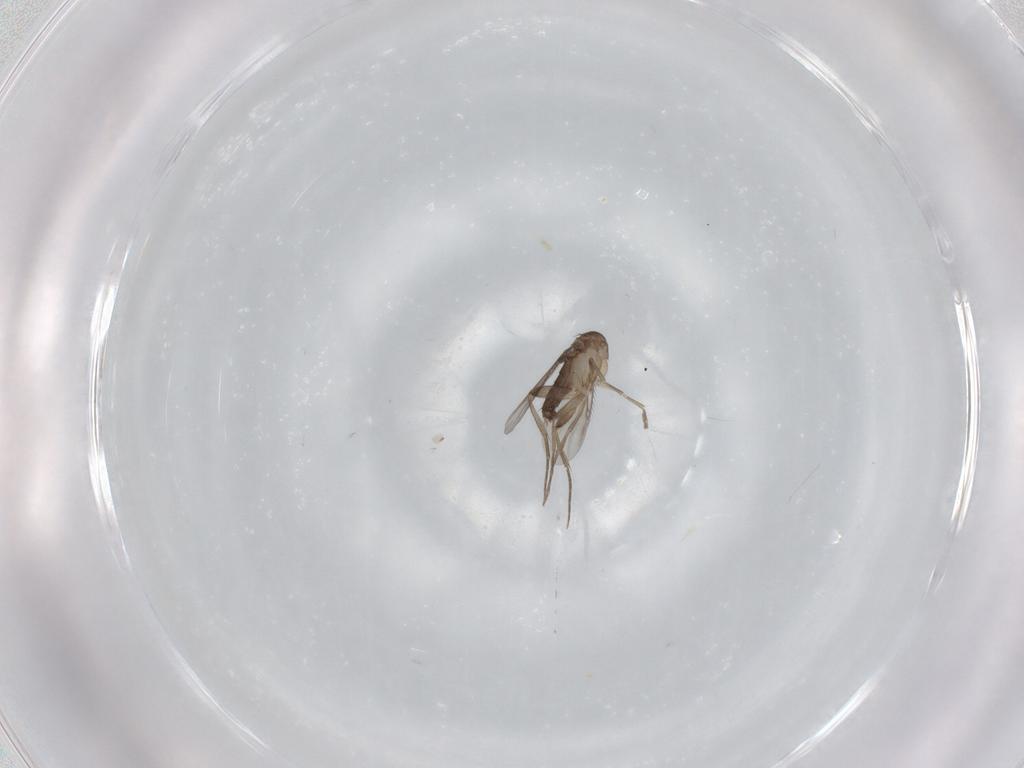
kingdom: Animalia
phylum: Arthropoda
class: Insecta
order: Diptera
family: Phoridae
